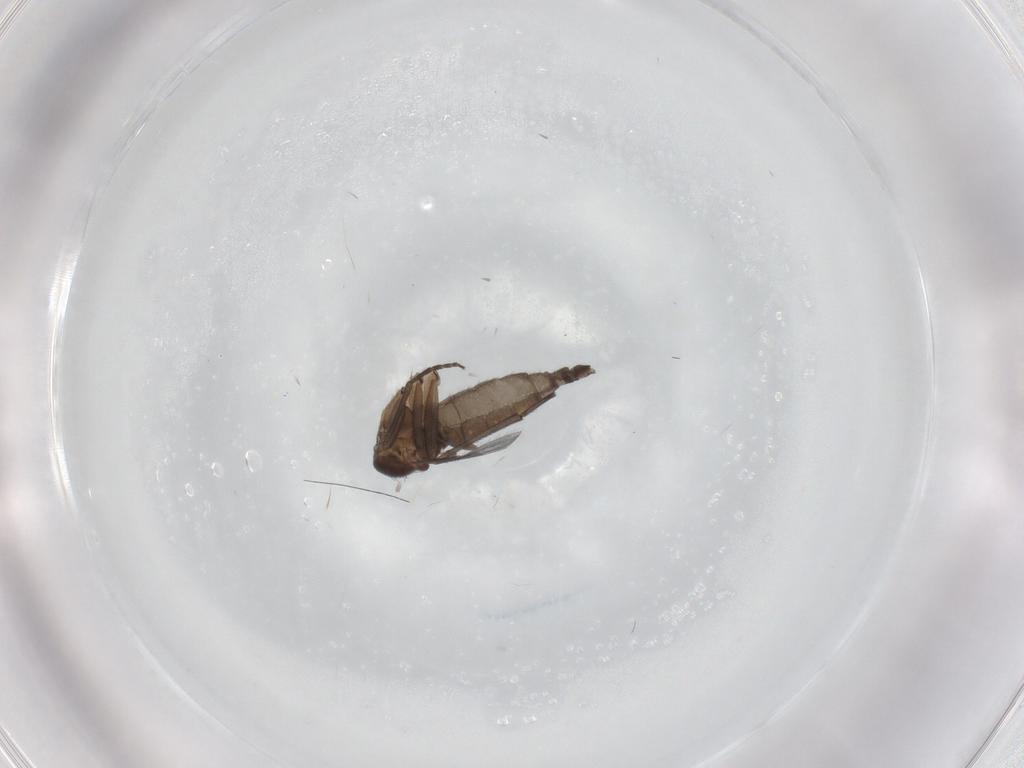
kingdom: Animalia
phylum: Arthropoda
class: Insecta
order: Diptera
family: Sciaridae
